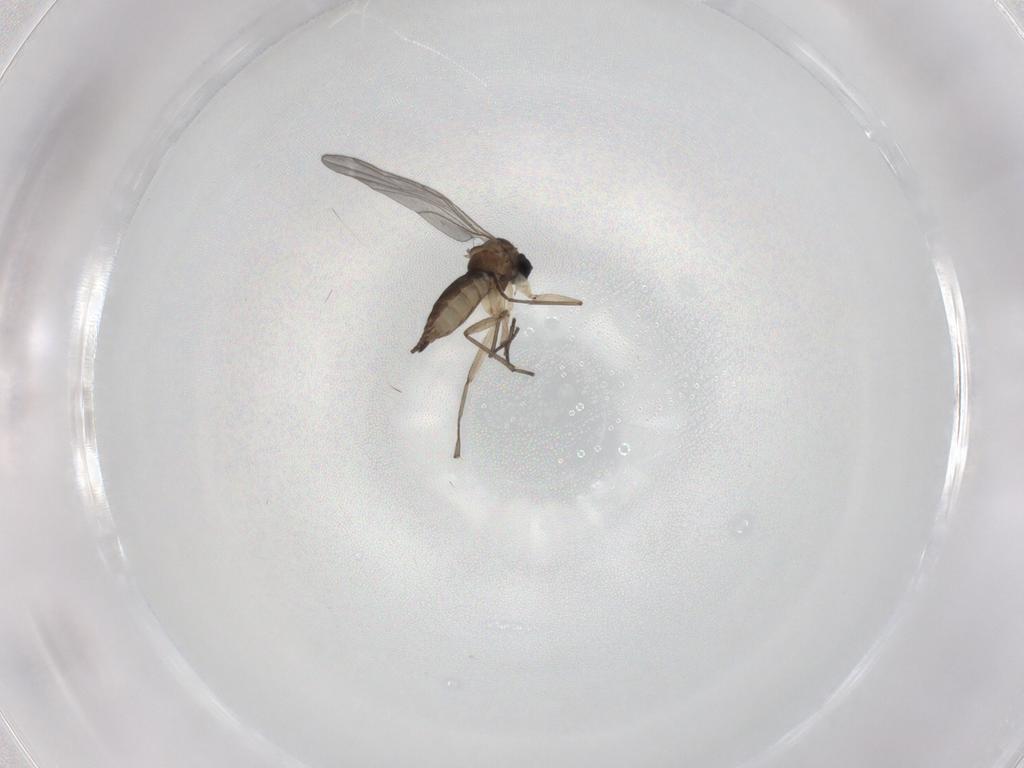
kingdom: Animalia
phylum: Arthropoda
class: Insecta
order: Diptera
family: Sciaridae
